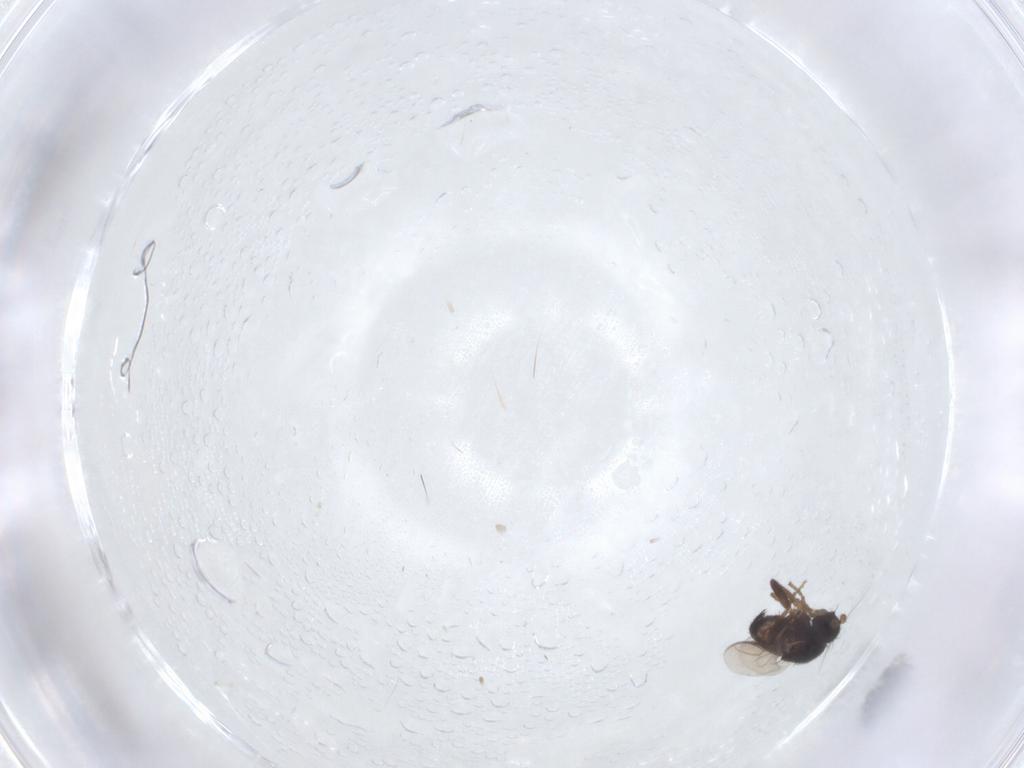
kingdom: Animalia
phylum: Arthropoda
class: Insecta
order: Diptera
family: Sphaeroceridae
